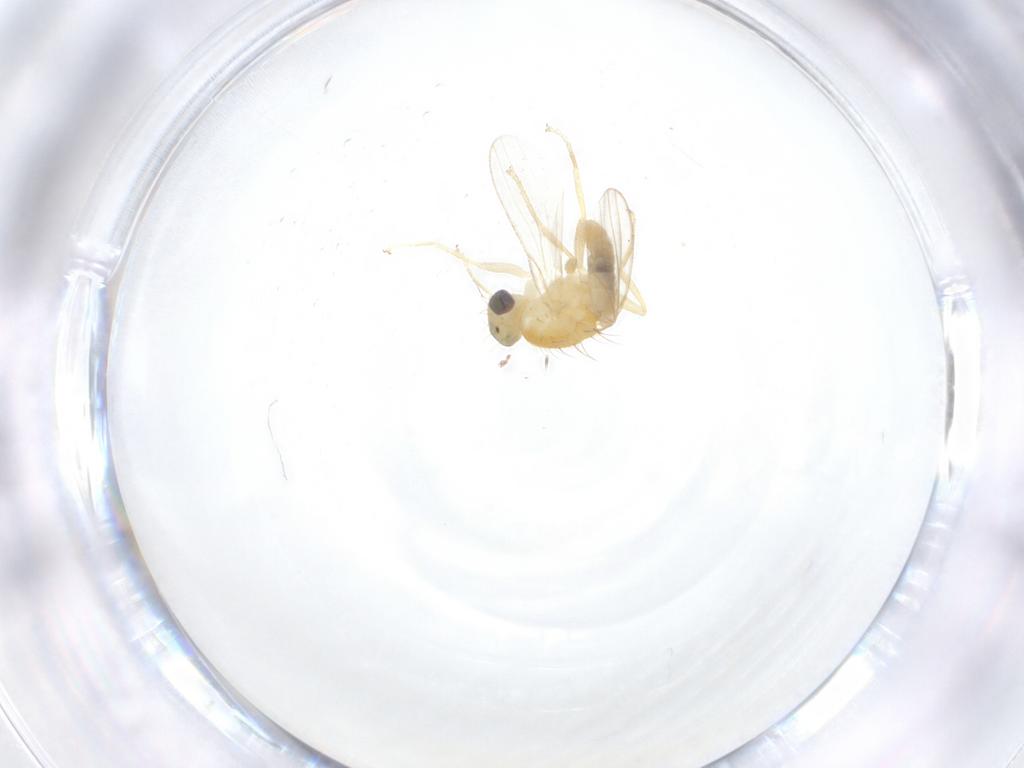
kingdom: Animalia
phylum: Arthropoda
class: Insecta
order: Diptera
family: Chyromyidae
